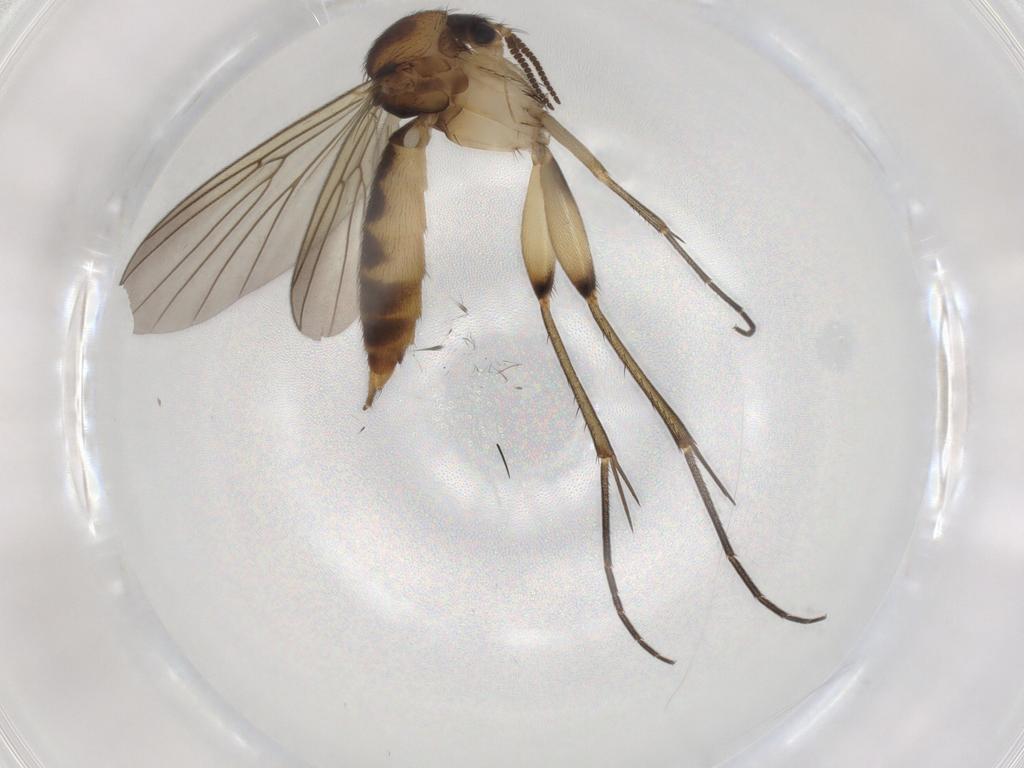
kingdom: Animalia
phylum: Arthropoda
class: Insecta
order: Diptera
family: Mycetophilidae
